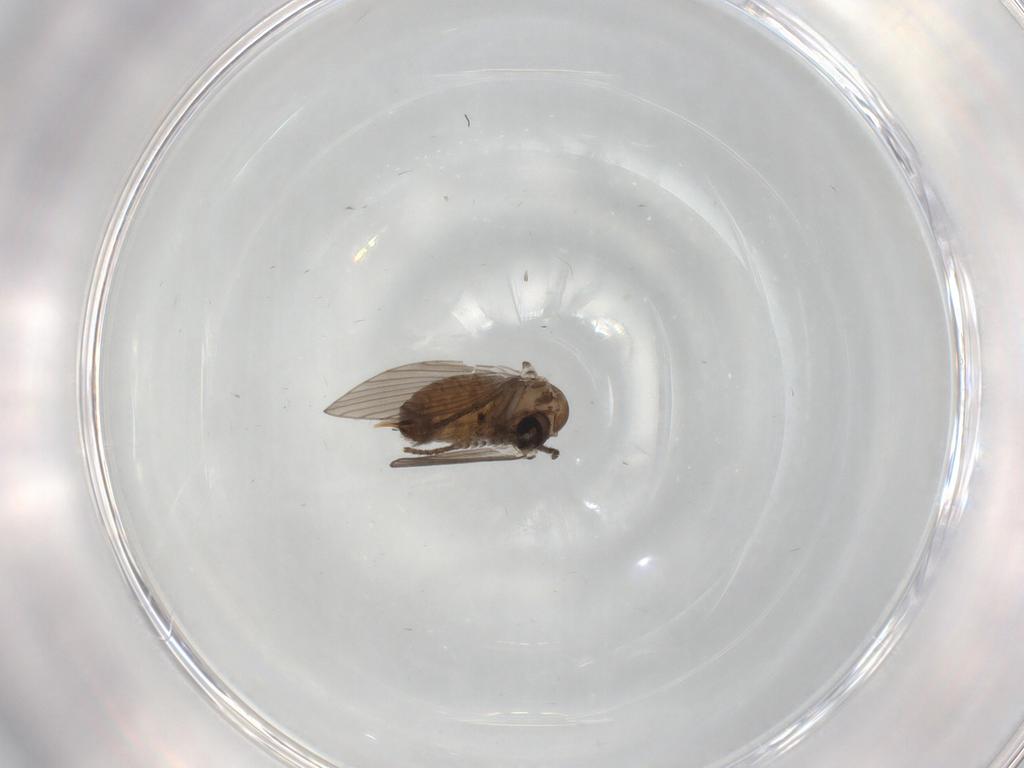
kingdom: Animalia
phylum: Arthropoda
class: Insecta
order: Diptera
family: Psychodidae
